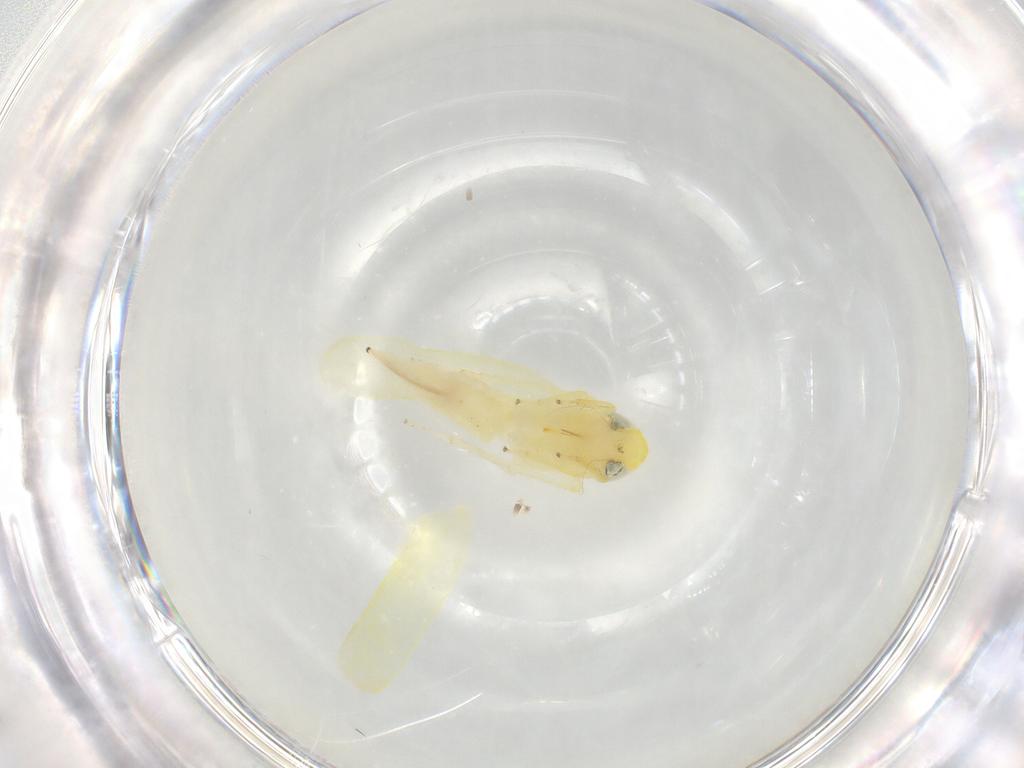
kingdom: Animalia
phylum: Arthropoda
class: Insecta
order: Hemiptera
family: Cicadellidae
